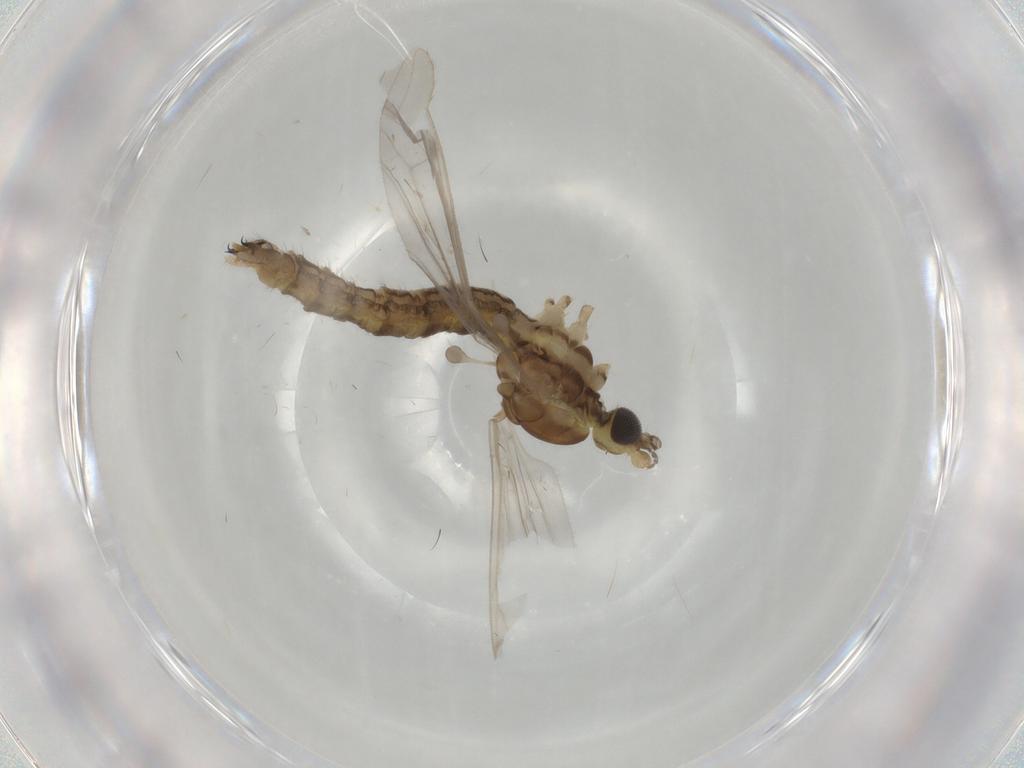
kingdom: Animalia
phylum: Arthropoda
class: Insecta
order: Diptera
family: Ceratopogonidae
